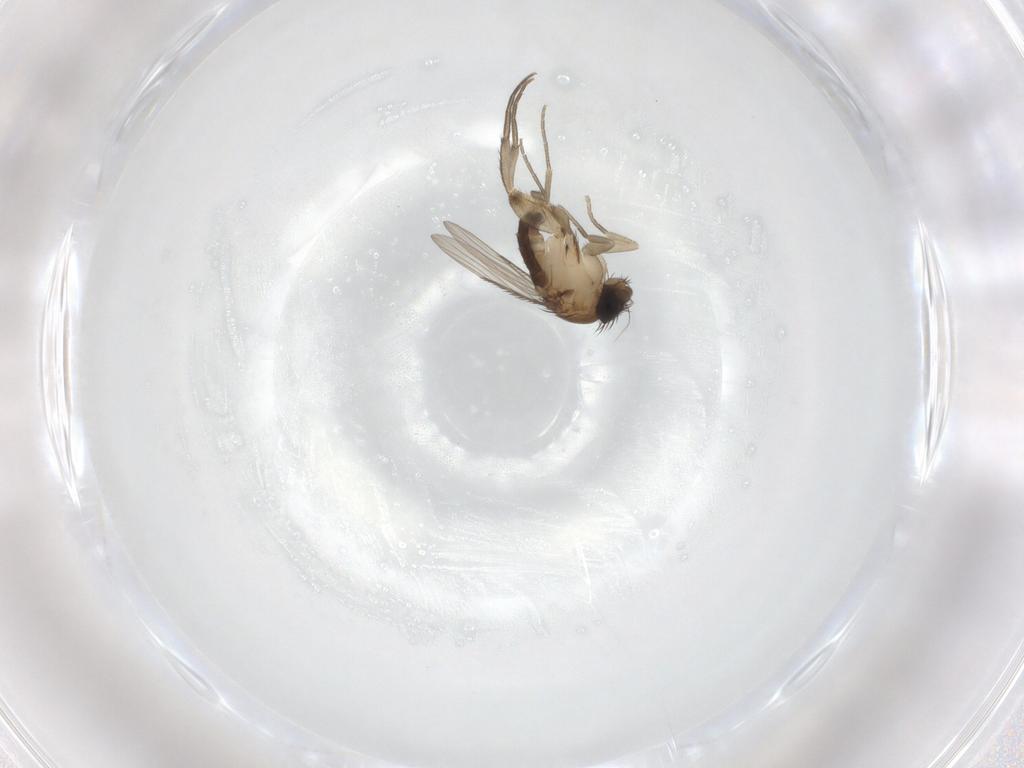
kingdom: Animalia
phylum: Arthropoda
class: Insecta
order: Diptera
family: Phoridae
